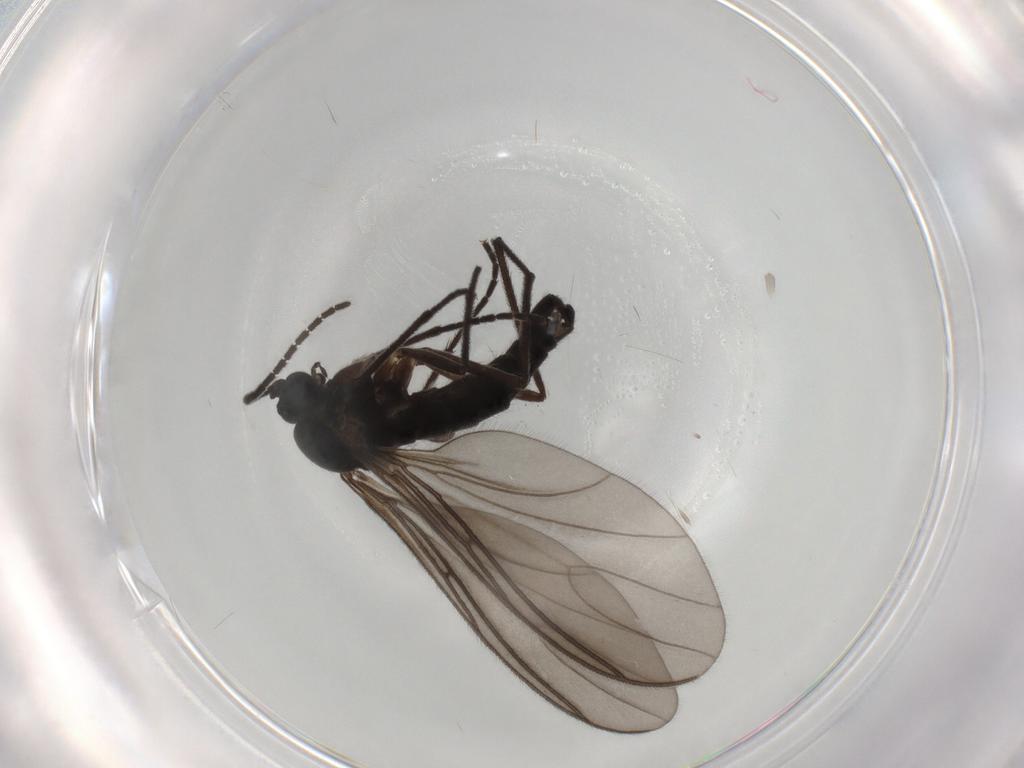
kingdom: Animalia
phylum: Arthropoda
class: Insecta
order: Diptera
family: Sciaridae
